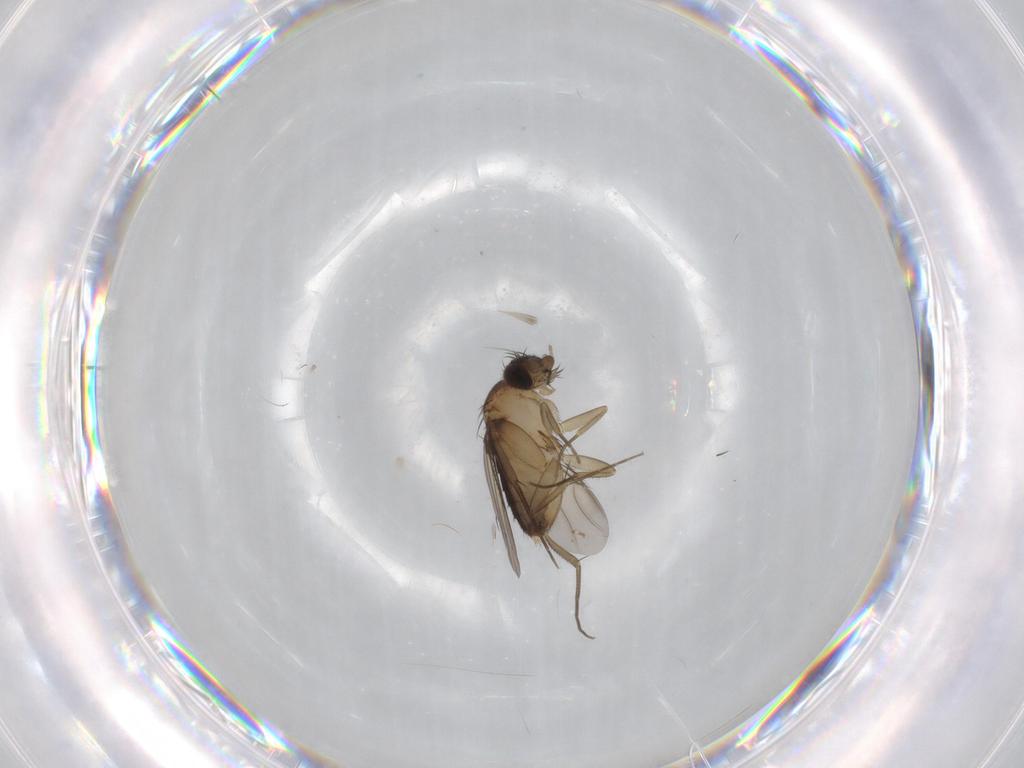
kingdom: Animalia
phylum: Arthropoda
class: Insecta
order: Diptera
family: Phoridae
